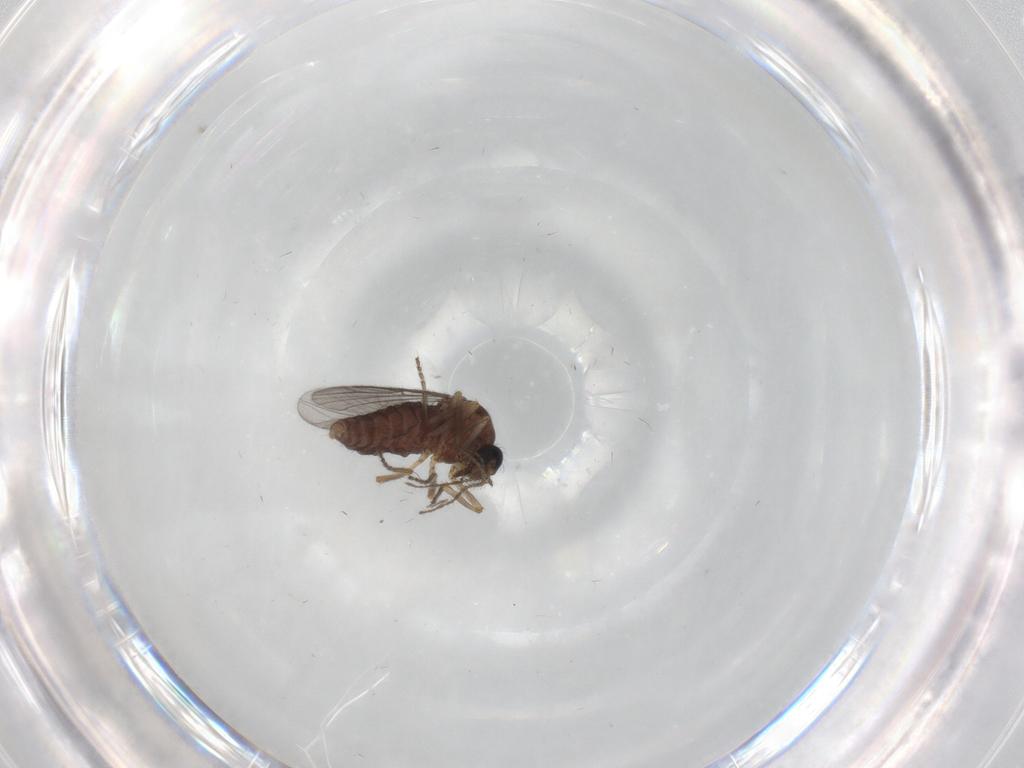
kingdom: Animalia
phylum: Arthropoda
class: Insecta
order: Diptera
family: Ceratopogonidae
